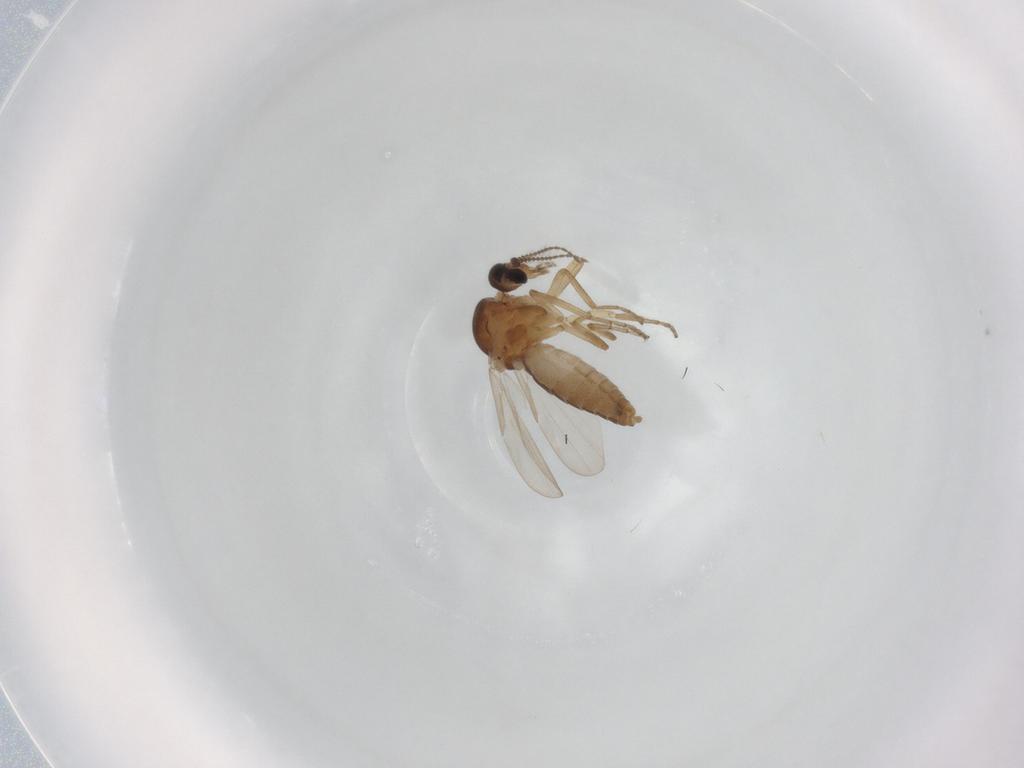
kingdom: Animalia
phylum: Arthropoda
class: Insecta
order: Diptera
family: Ceratopogonidae
